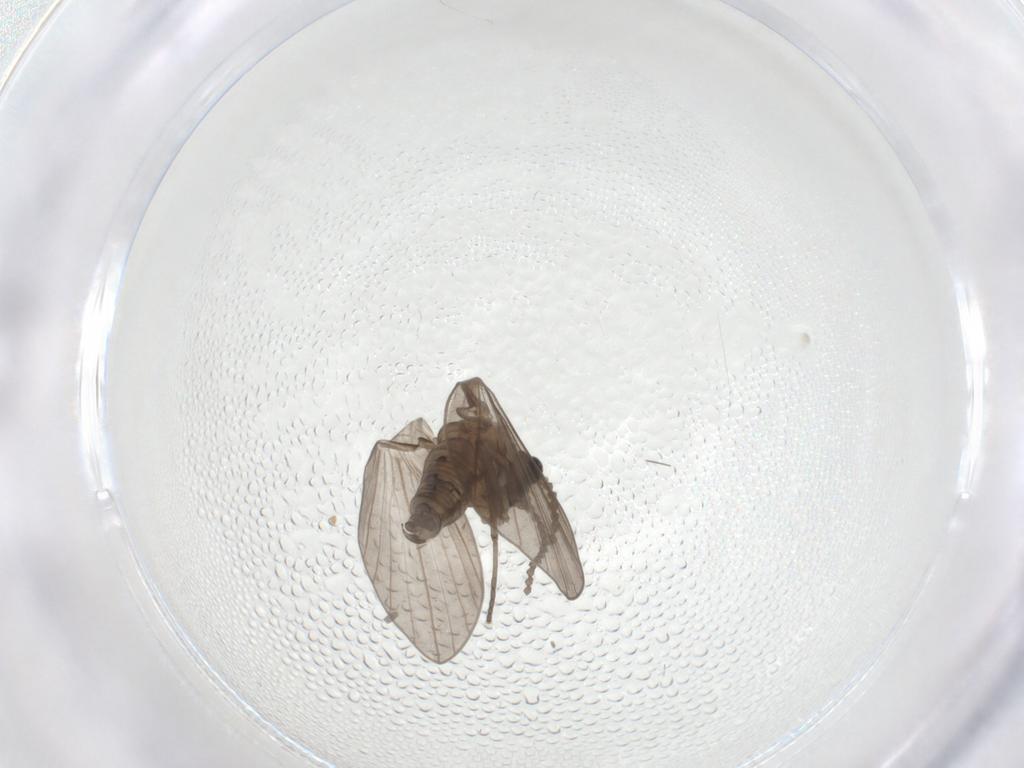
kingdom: Animalia
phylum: Arthropoda
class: Insecta
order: Diptera
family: Psychodidae
